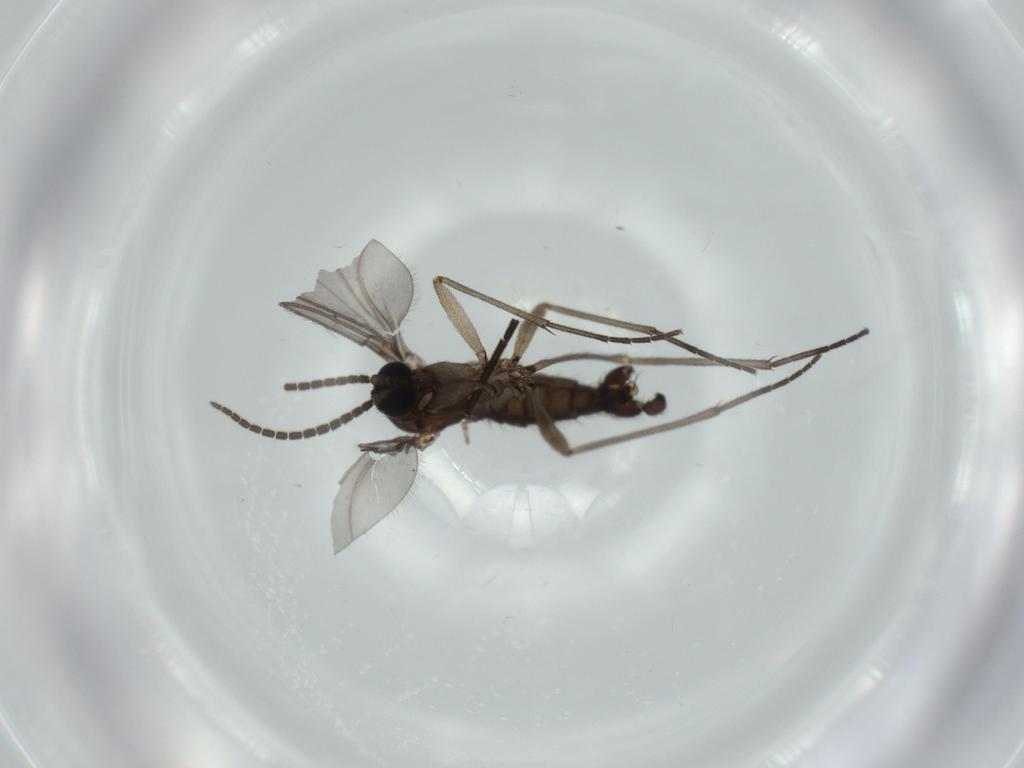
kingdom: Animalia
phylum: Arthropoda
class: Insecta
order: Diptera
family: Sciaridae
